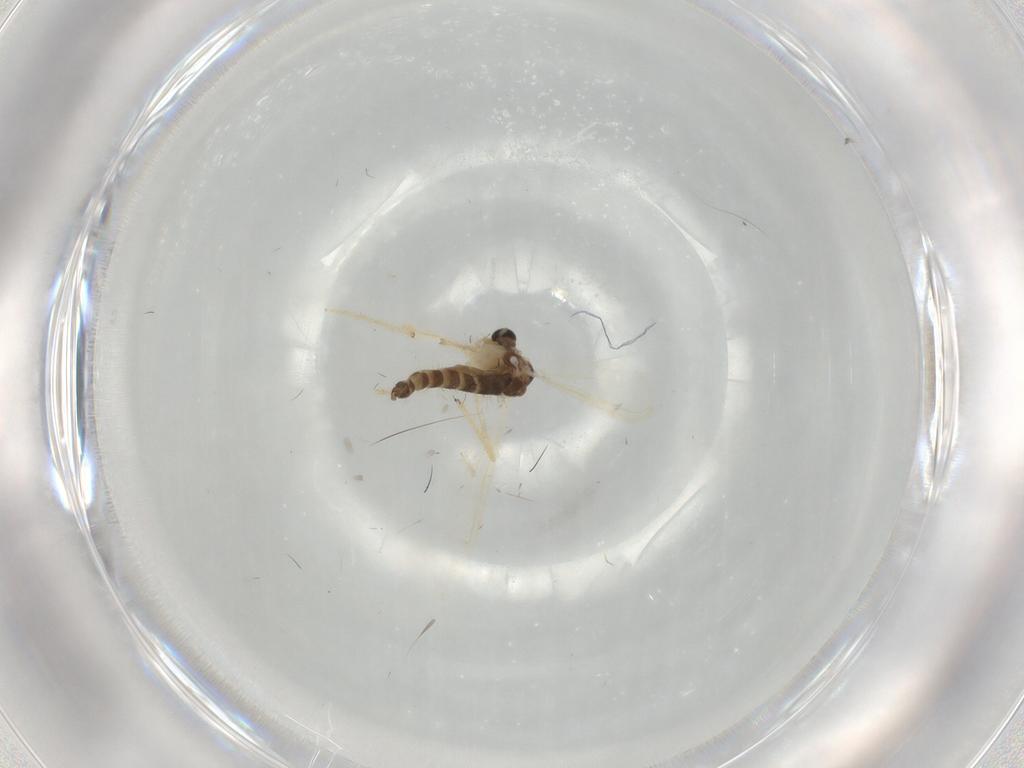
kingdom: Animalia
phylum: Arthropoda
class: Insecta
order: Diptera
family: Chironomidae
